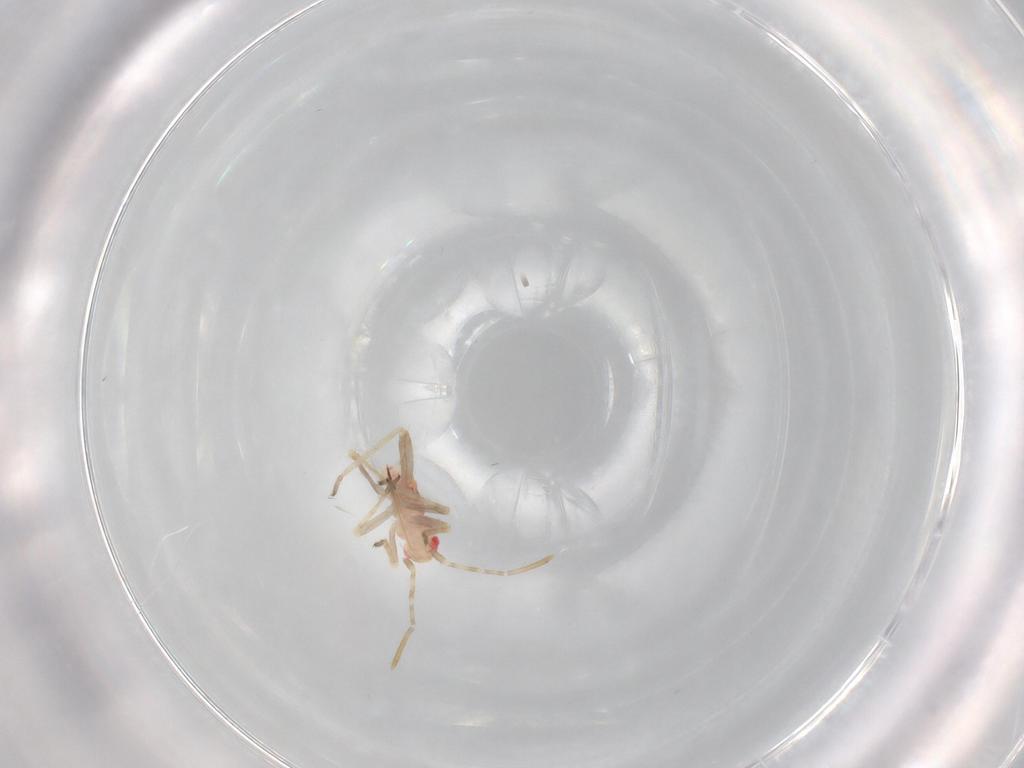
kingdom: Animalia
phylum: Arthropoda
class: Insecta
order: Hemiptera
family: Miridae
